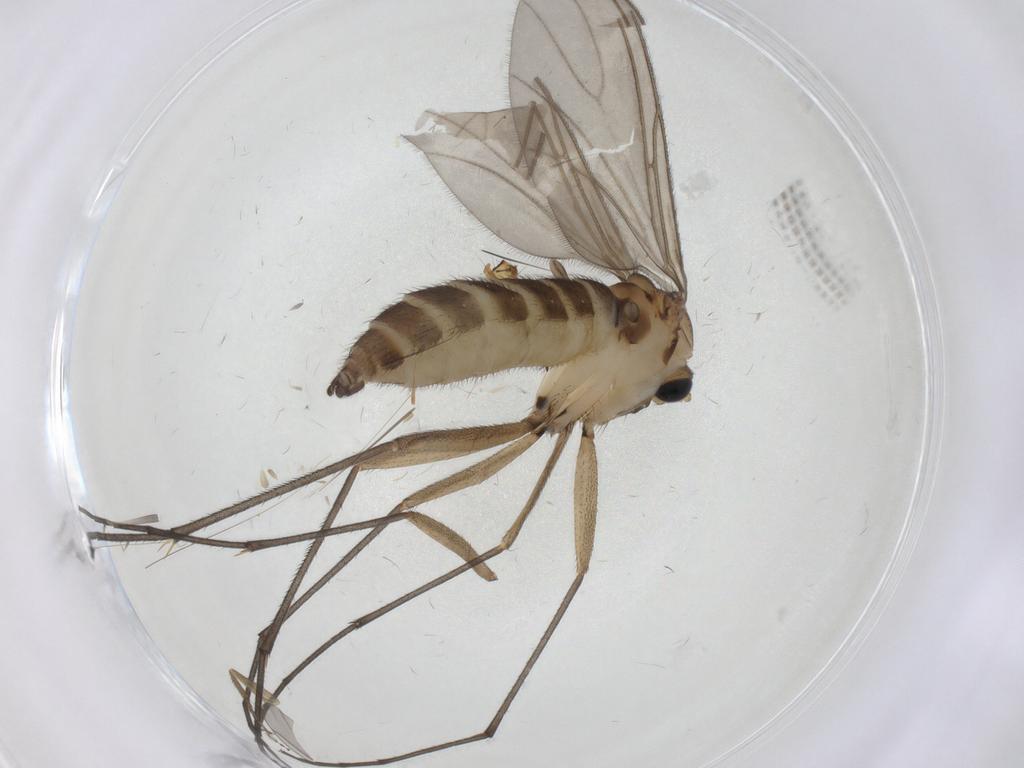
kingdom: Animalia
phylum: Arthropoda
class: Insecta
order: Diptera
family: Sciaridae
